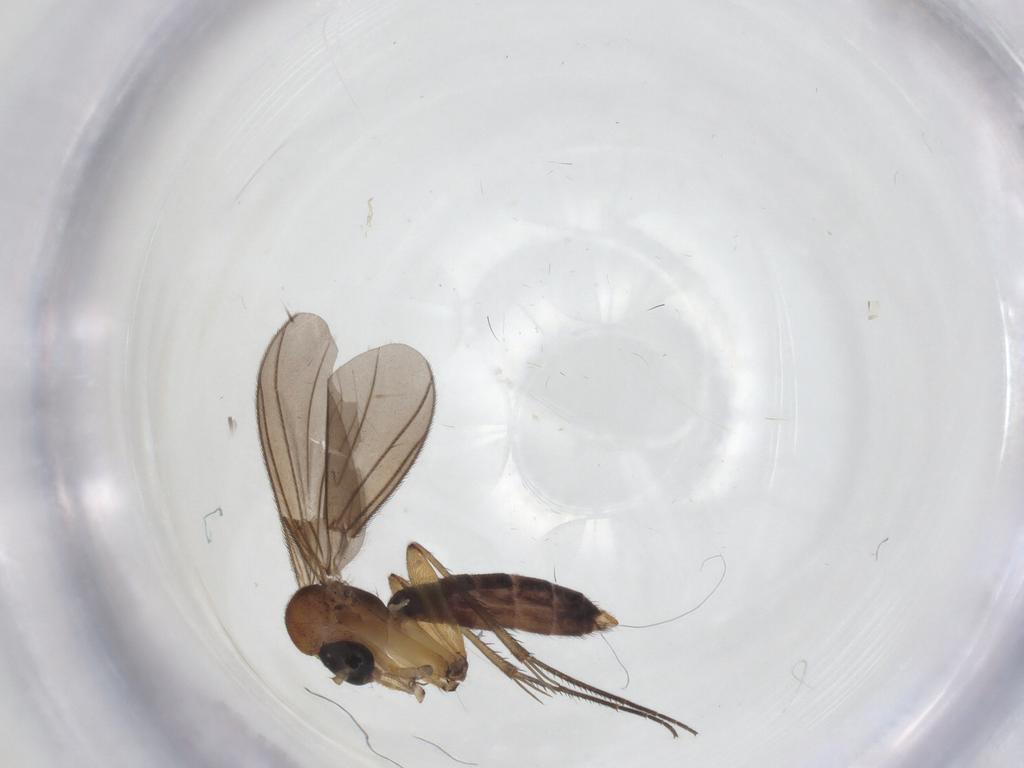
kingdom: Animalia
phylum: Arthropoda
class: Insecta
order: Diptera
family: Mycetophilidae
